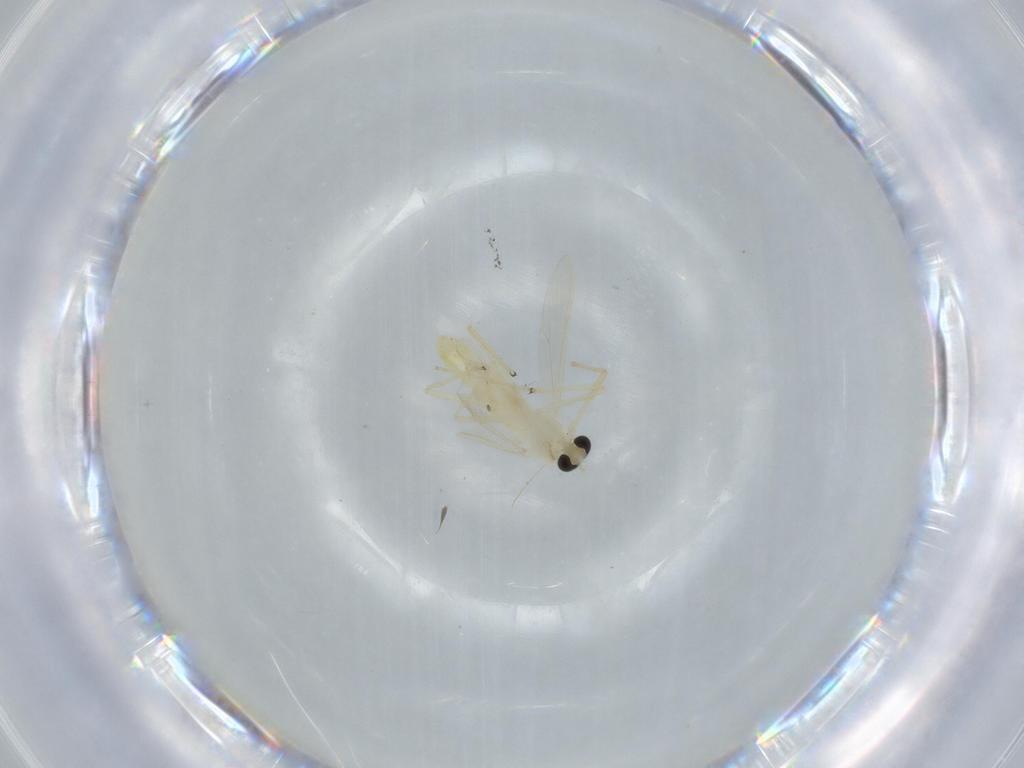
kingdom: Animalia
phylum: Arthropoda
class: Insecta
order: Diptera
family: Chironomidae
